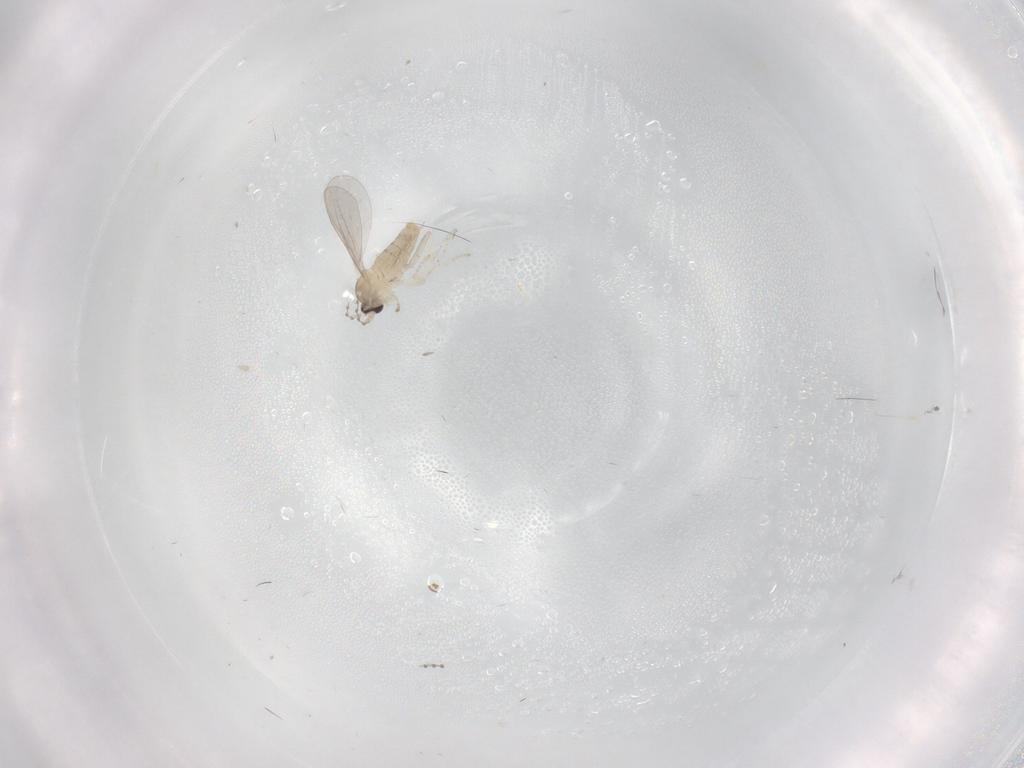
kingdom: Animalia
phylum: Arthropoda
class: Insecta
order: Diptera
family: Cecidomyiidae
